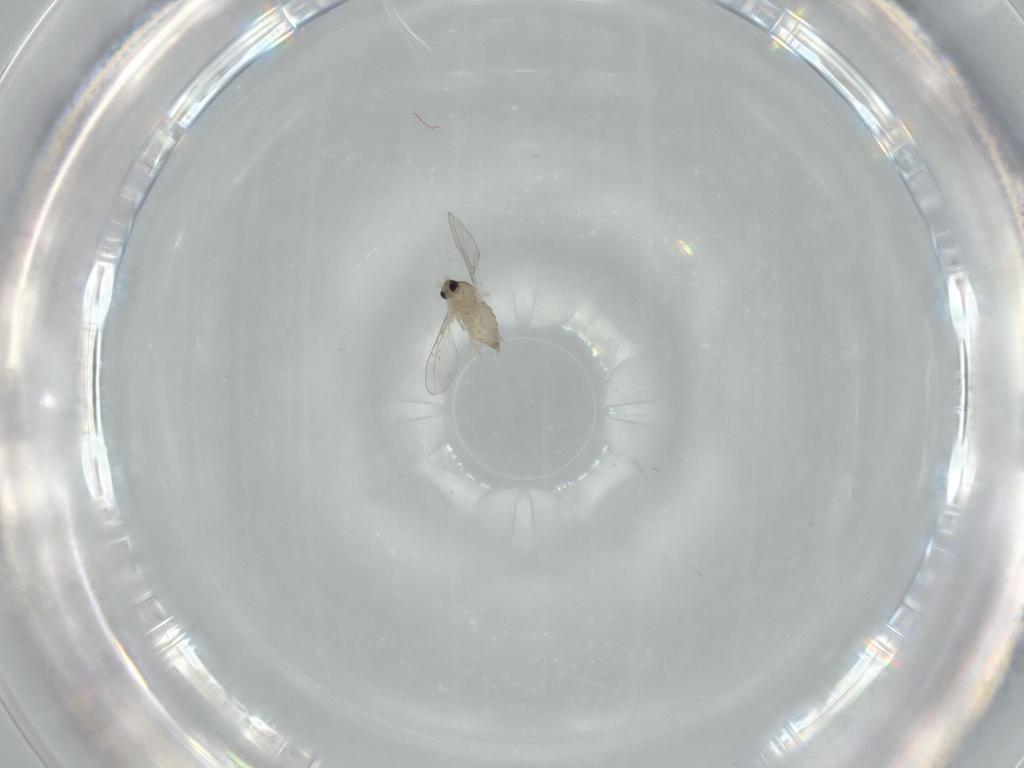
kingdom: Animalia
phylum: Arthropoda
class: Insecta
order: Diptera
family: Cecidomyiidae
